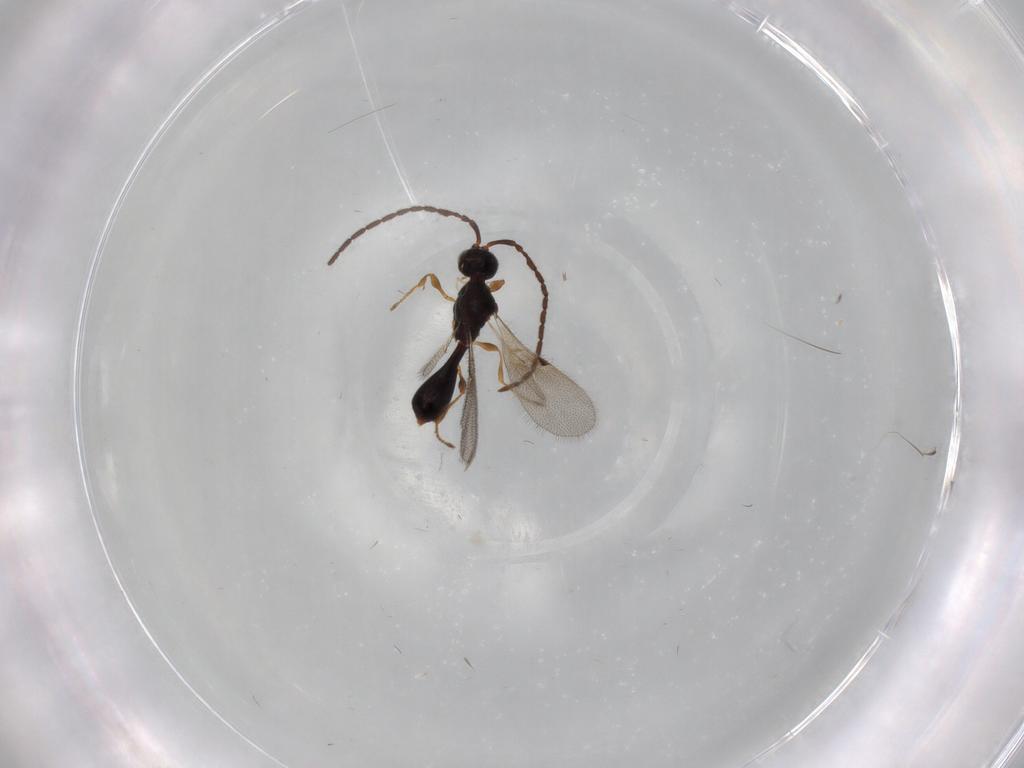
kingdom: Animalia
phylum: Arthropoda
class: Insecta
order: Hymenoptera
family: Diapriidae
